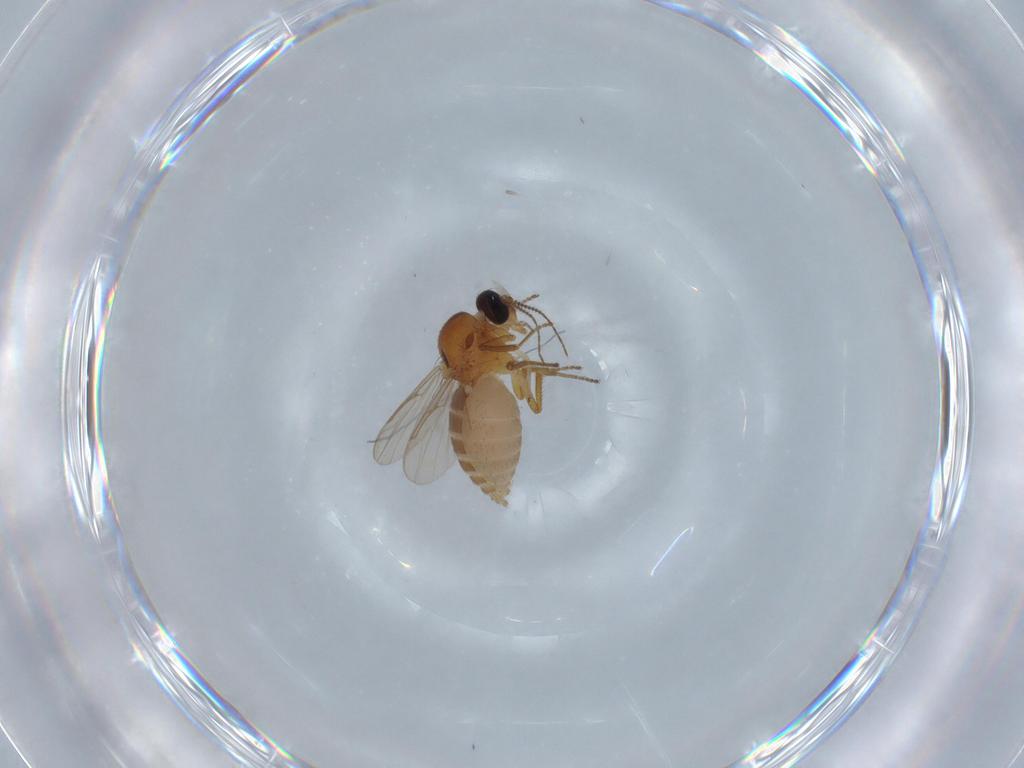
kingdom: Animalia
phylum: Arthropoda
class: Insecta
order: Diptera
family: Ceratopogonidae
